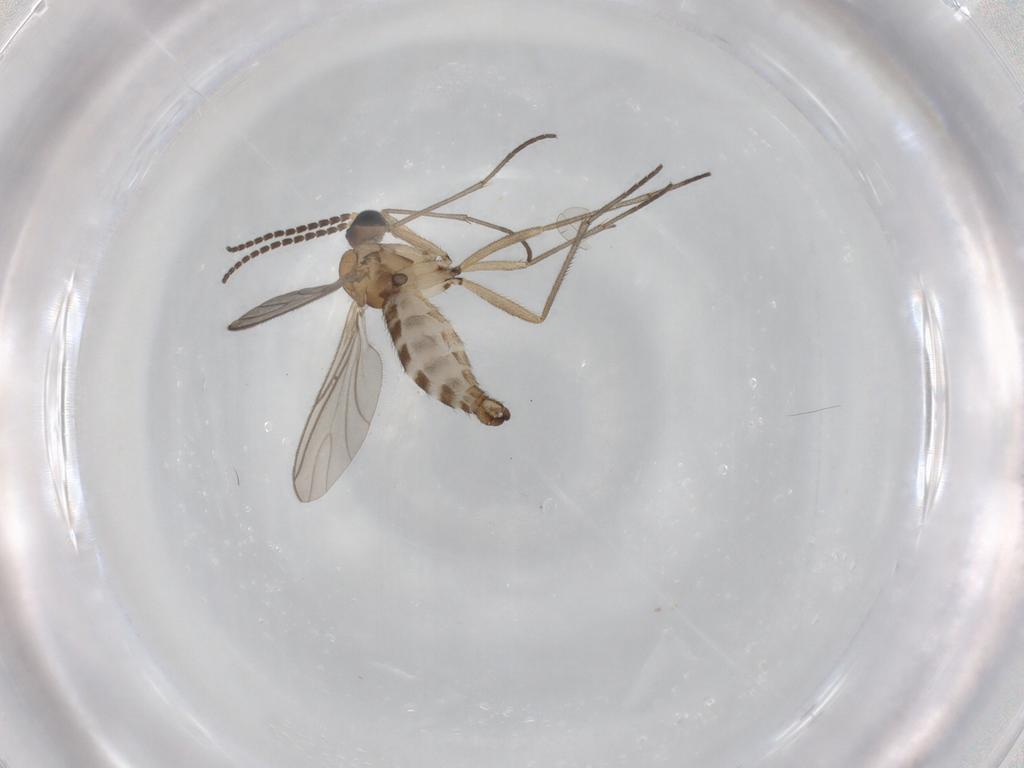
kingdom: Animalia
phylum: Arthropoda
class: Insecta
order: Diptera
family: Sciaridae
